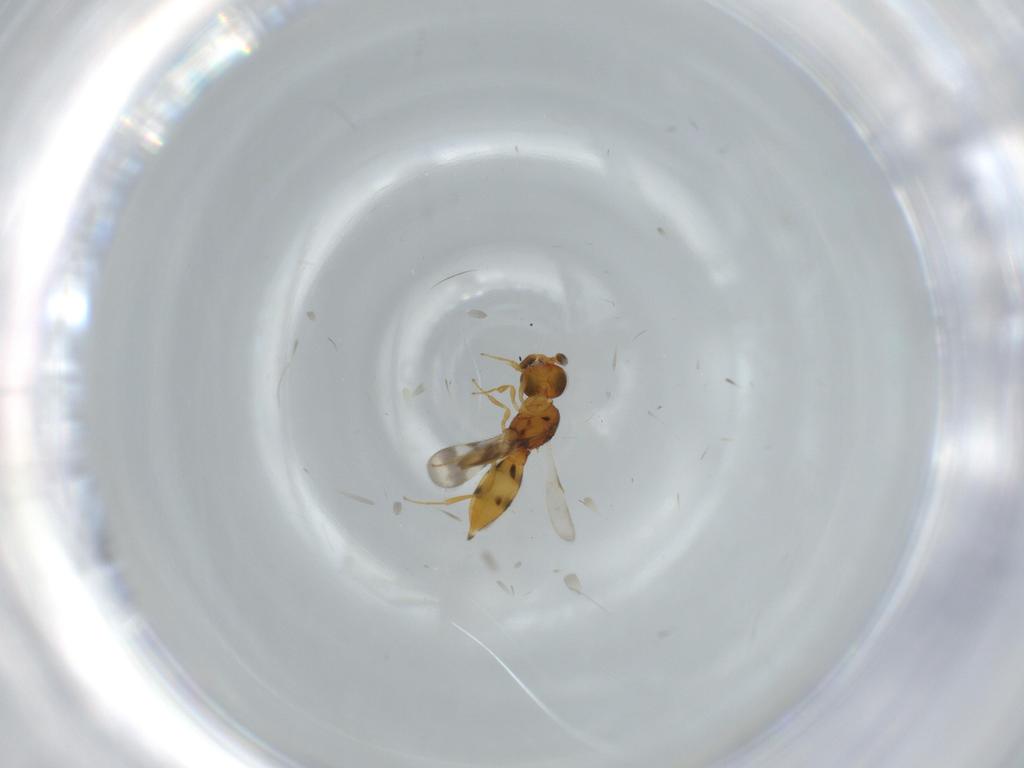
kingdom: Animalia
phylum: Arthropoda
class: Insecta
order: Hymenoptera
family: Scelionidae
